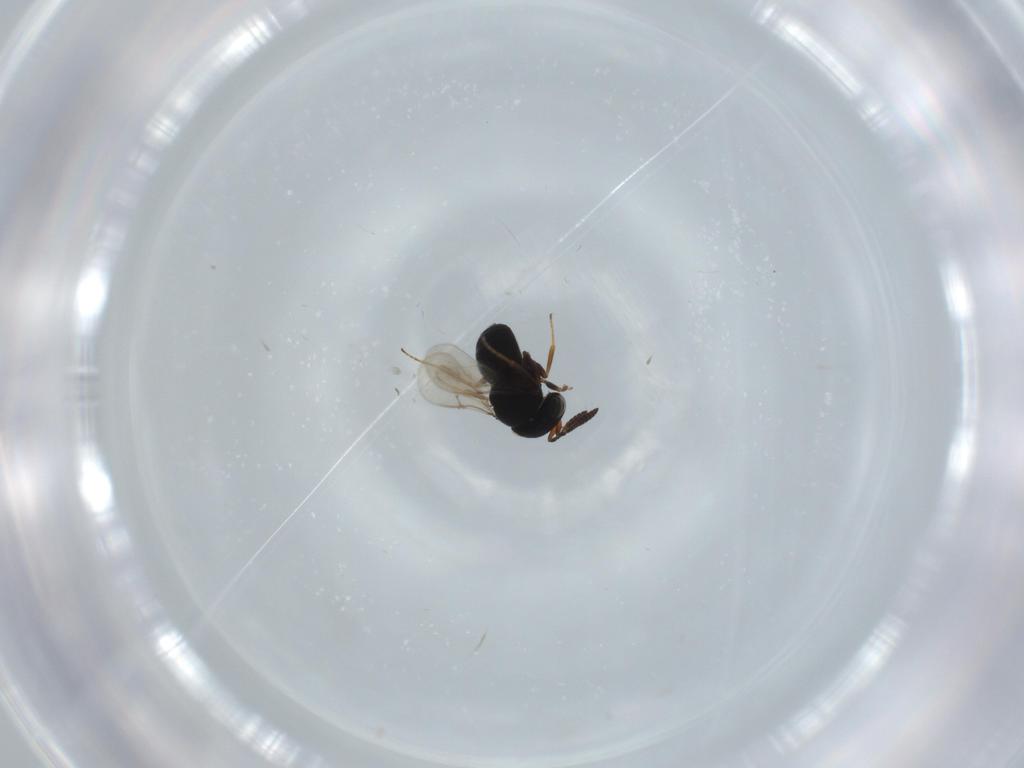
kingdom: Animalia
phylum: Arthropoda
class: Insecta
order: Hymenoptera
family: Scelionidae
